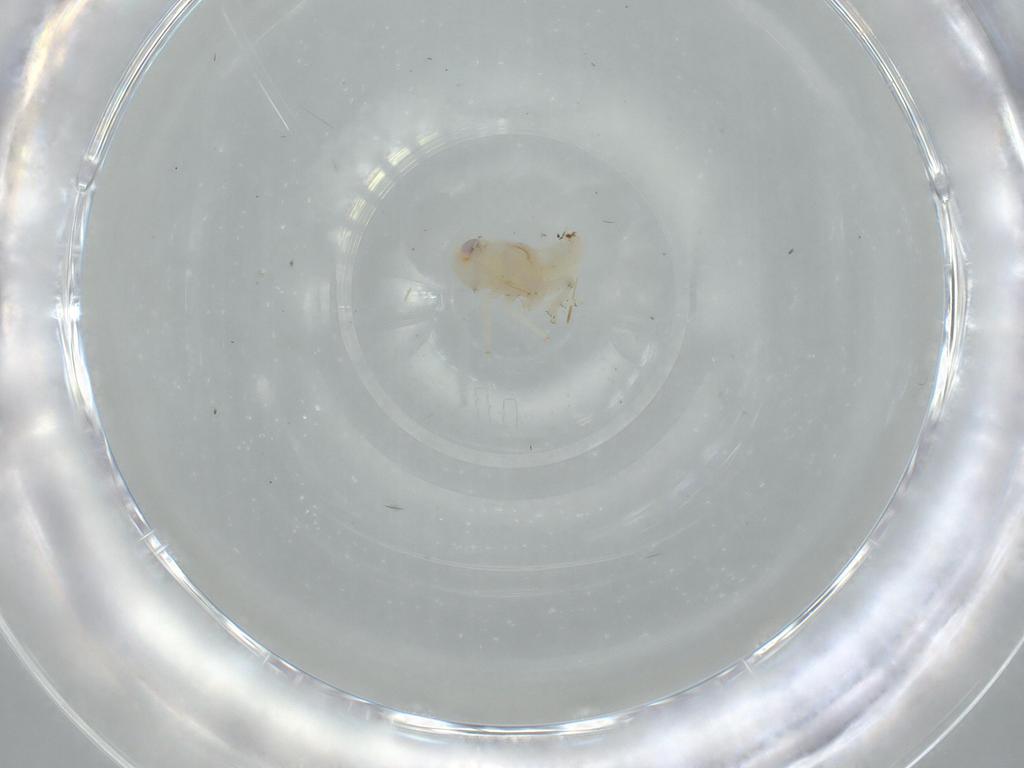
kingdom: Animalia
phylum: Arthropoda
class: Insecta
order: Hemiptera
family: Nogodinidae
